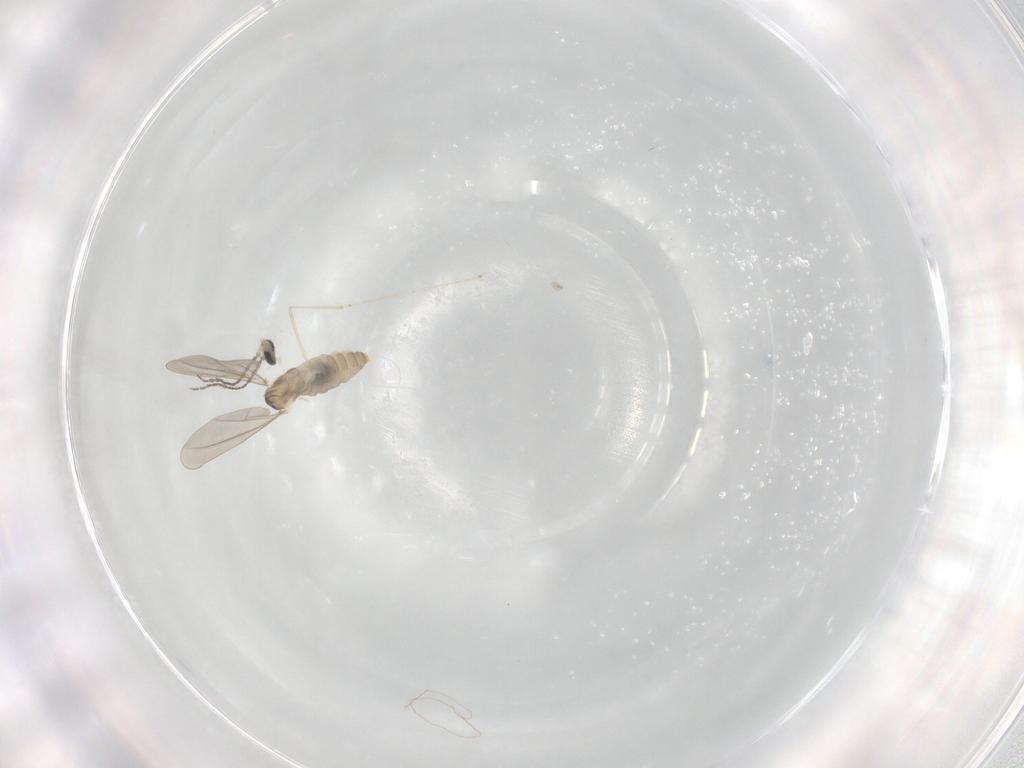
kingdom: Animalia
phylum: Arthropoda
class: Insecta
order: Diptera
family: Psychodidae
